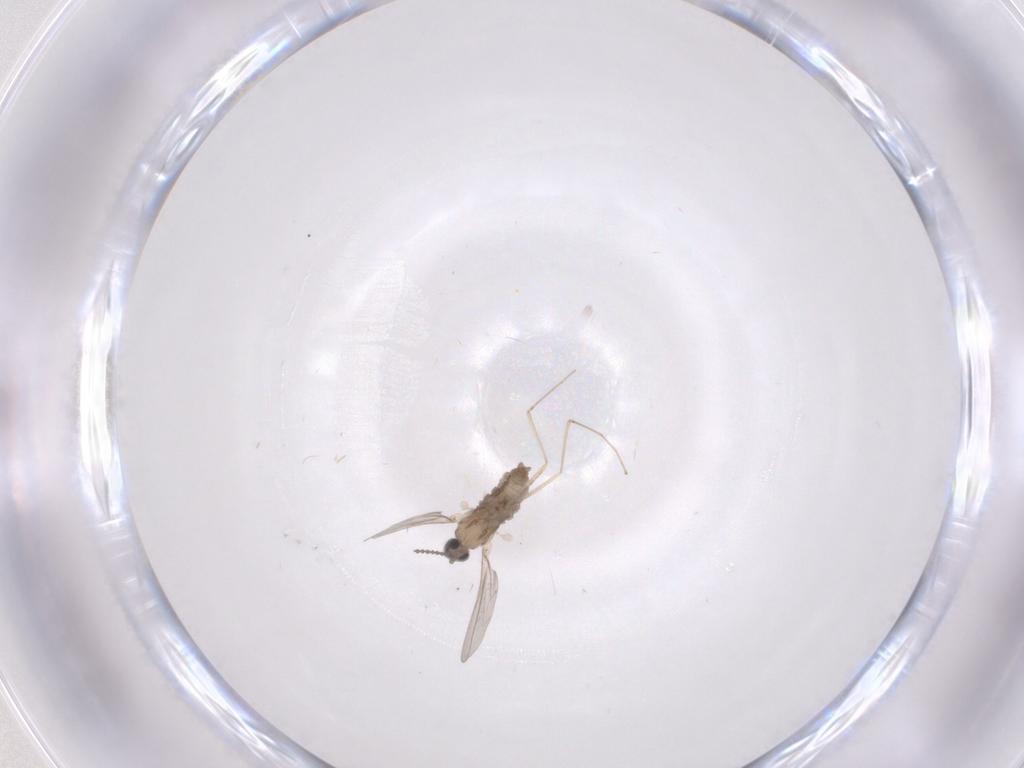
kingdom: Animalia
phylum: Arthropoda
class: Insecta
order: Diptera
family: Cecidomyiidae
